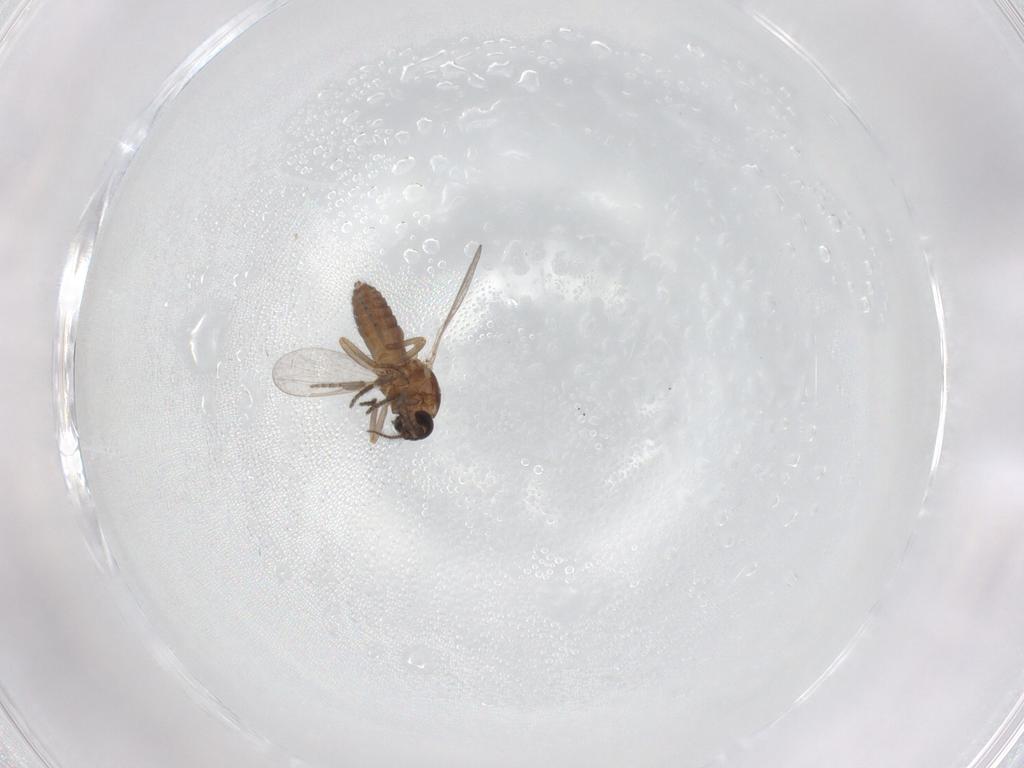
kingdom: Animalia
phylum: Arthropoda
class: Insecta
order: Diptera
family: Ceratopogonidae
